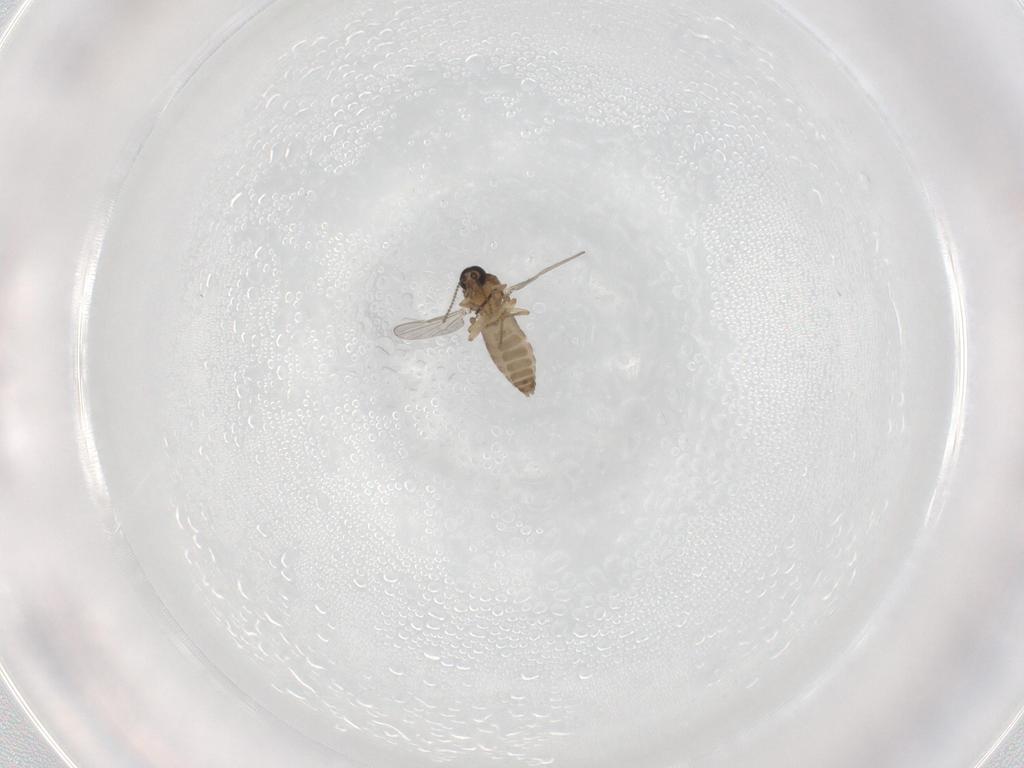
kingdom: Animalia
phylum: Arthropoda
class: Insecta
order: Diptera
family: Sciaridae
